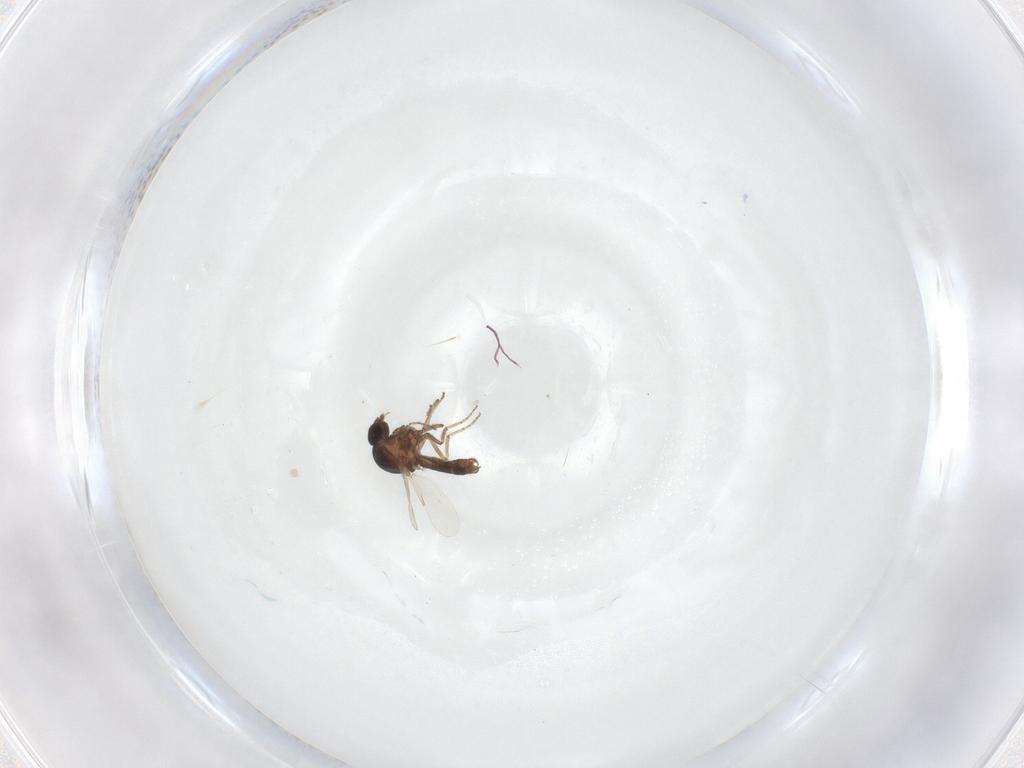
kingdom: Animalia
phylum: Arthropoda
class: Insecta
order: Diptera
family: Ceratopogonidae
